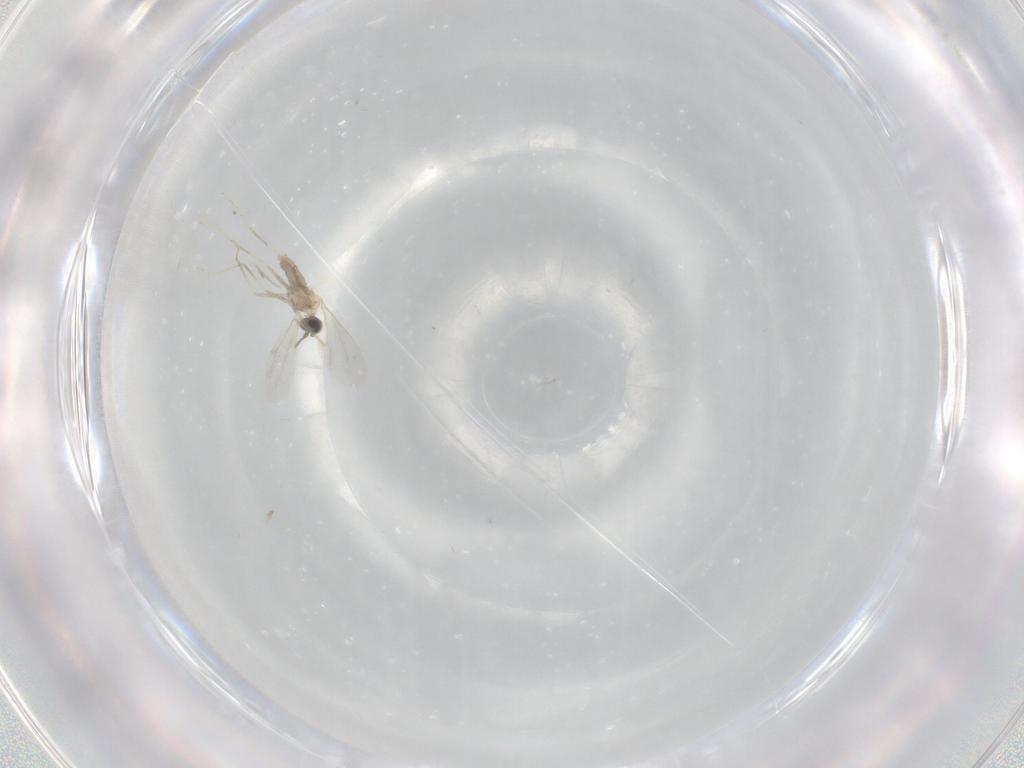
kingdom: Animalia
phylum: Arthropoda
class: Insecta
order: Diptera
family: Cecidomyiidae
